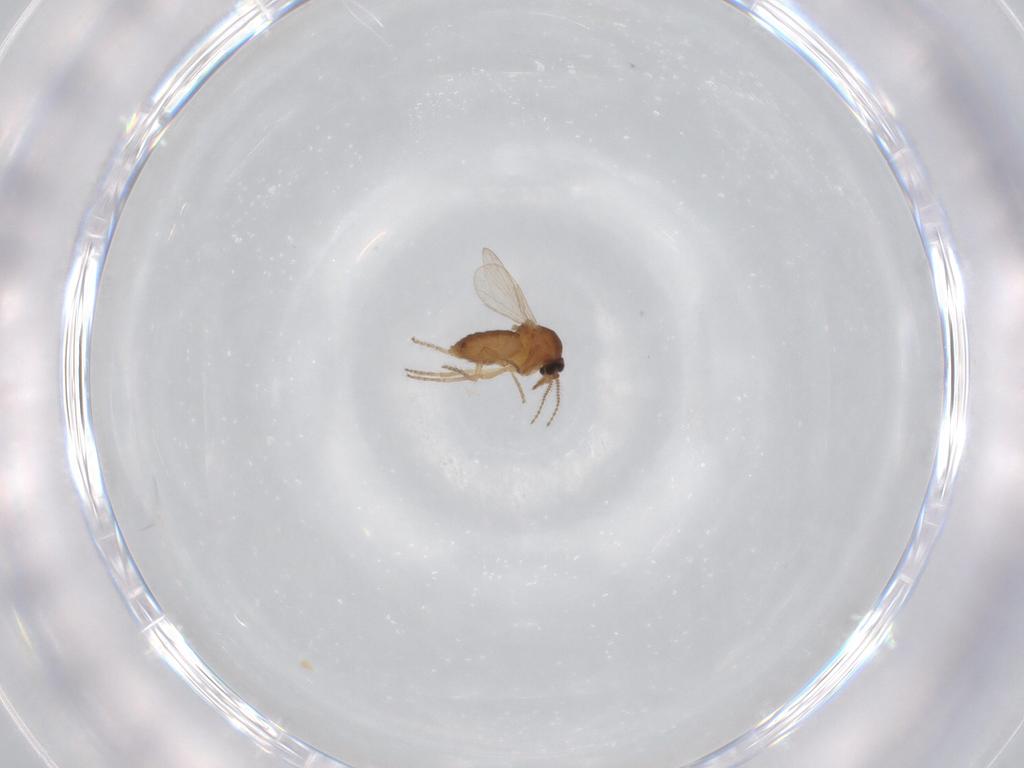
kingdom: Animalia
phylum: Arthropoda
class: Insecta
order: Diptera
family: Ceratopogonidae
